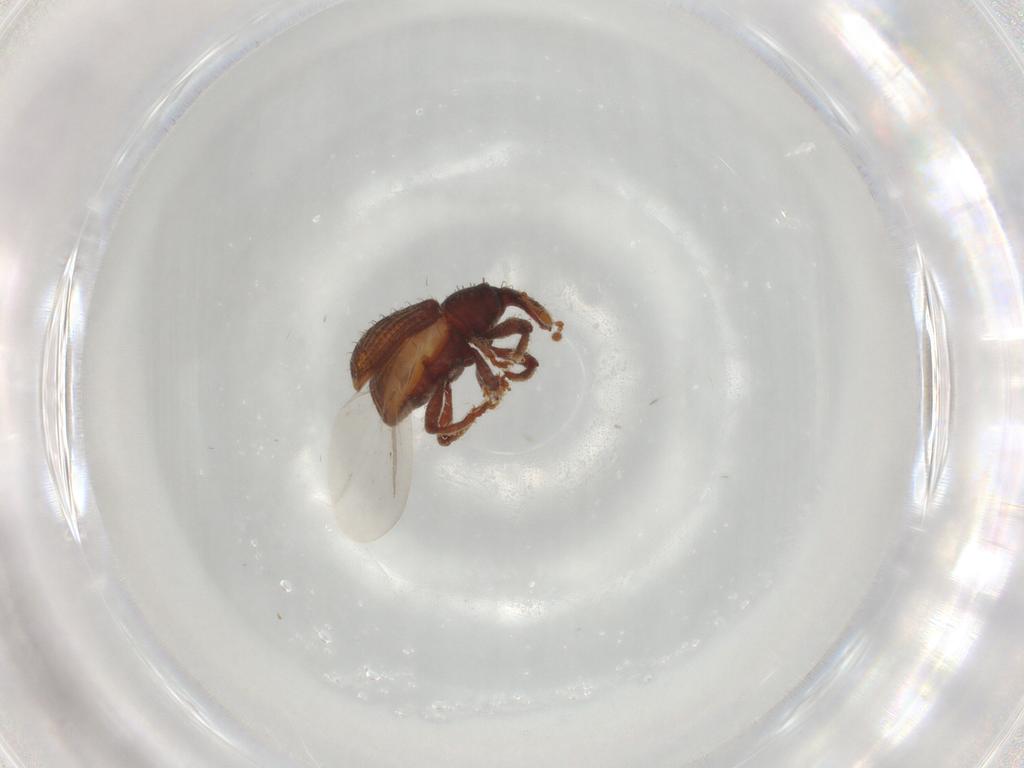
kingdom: Animalia
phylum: Arthropoda
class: Insecta
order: Coleoptera
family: Curculionidae
